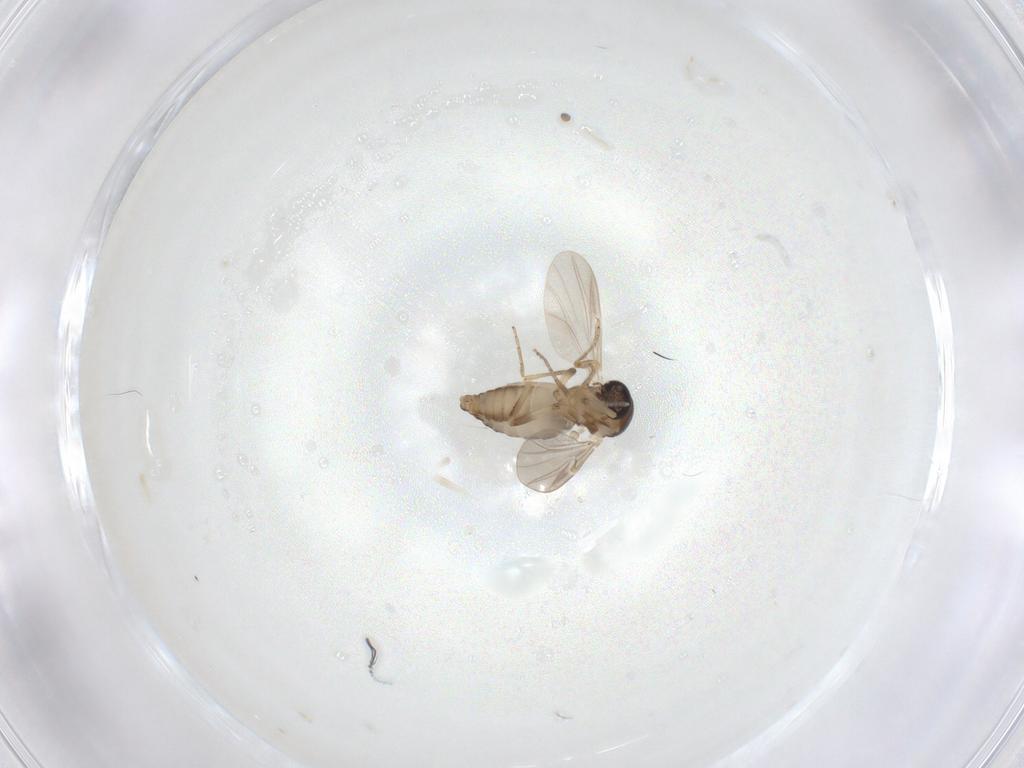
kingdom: Animalia
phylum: Arthropoda
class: Insecta
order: Diptera
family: Ceratopogonidae
